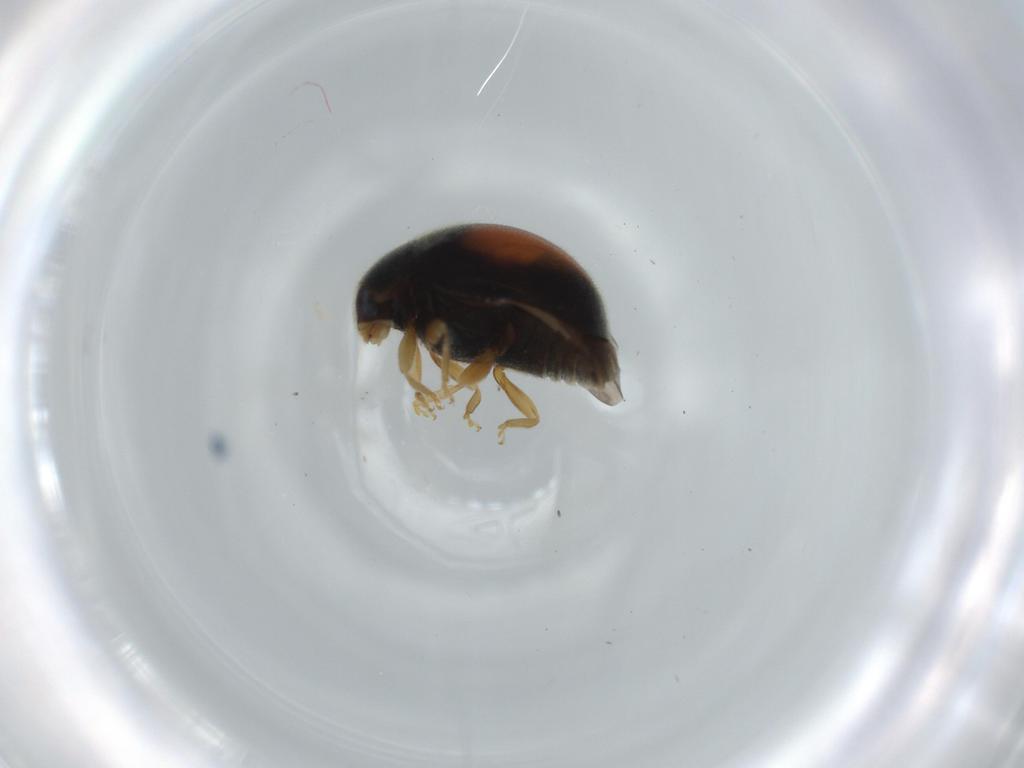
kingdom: Animalia
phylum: Arthropoda
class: Insecta
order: Coleoptera
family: Coccinellidae
